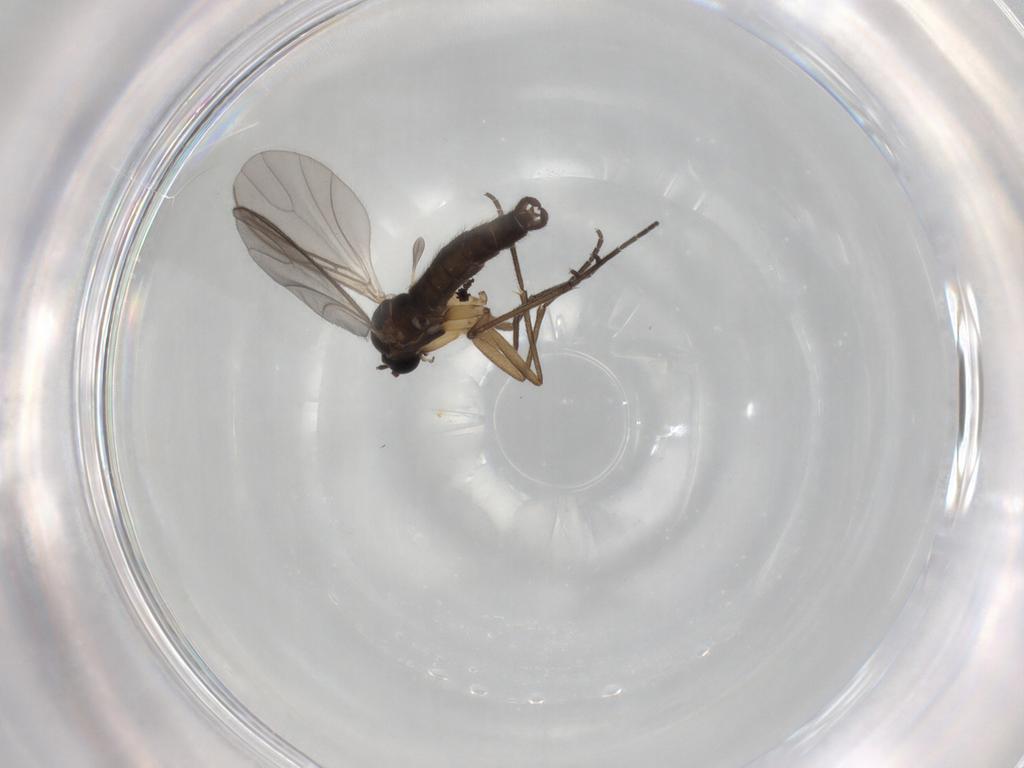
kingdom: Animalia
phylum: Arthropoda
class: Insecta
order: Diptera
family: Sciaridae
